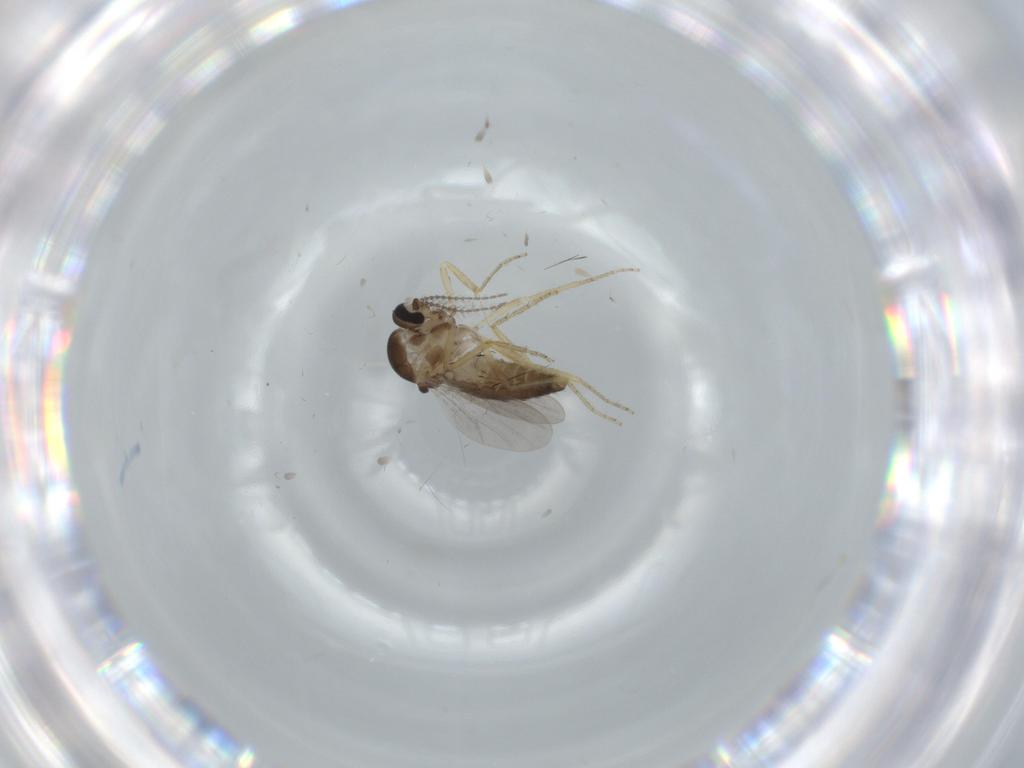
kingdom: Animalia
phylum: Arthropoda
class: Insecta
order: Diptera
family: Ceratopogonidae
